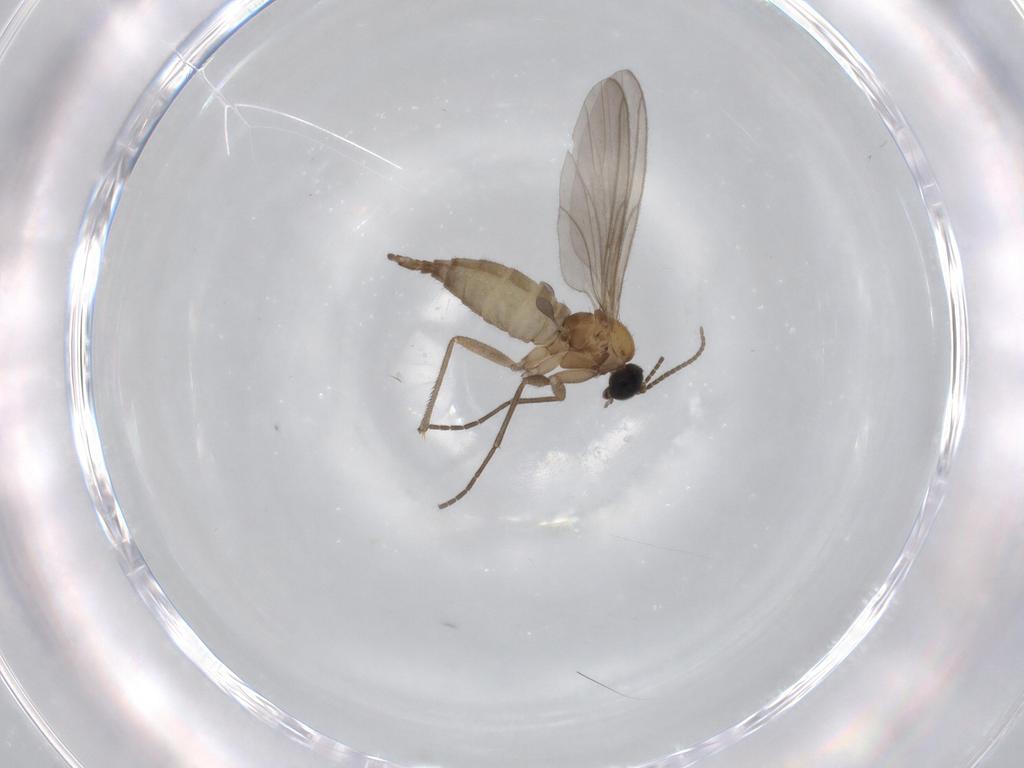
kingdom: Animalia
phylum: Arthropoda
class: Insecta
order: Diptera
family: Sciaridae
